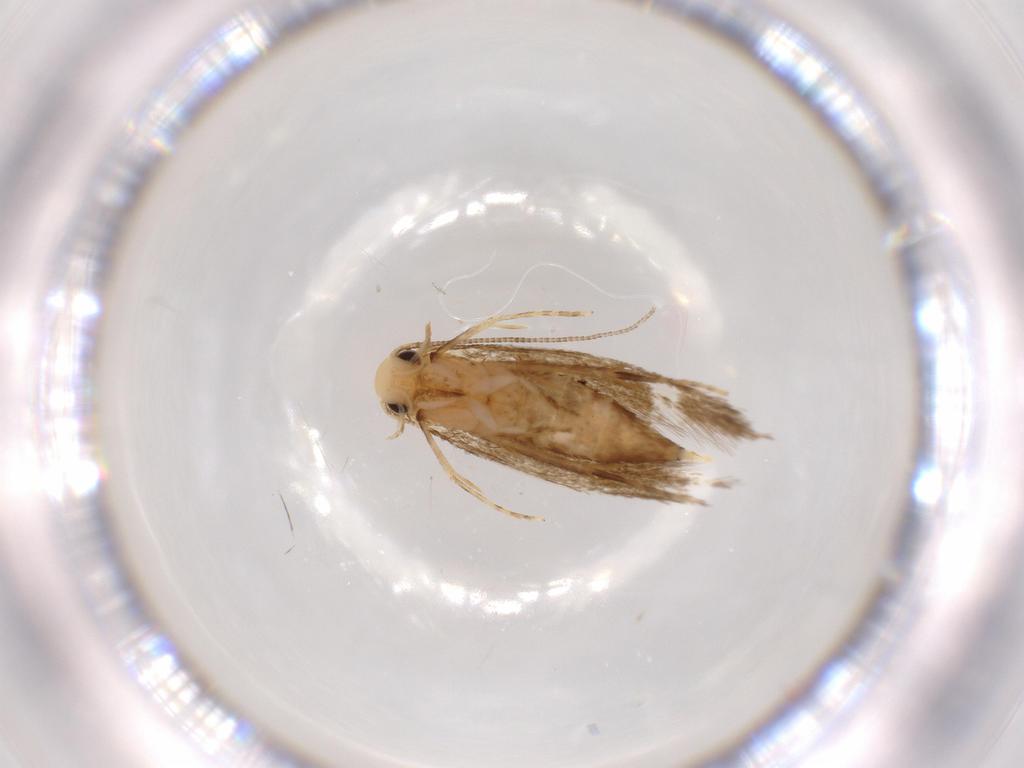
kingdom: Animalia
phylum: Arthropoda
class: Insecta
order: Lepidoptera
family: Tineidae
